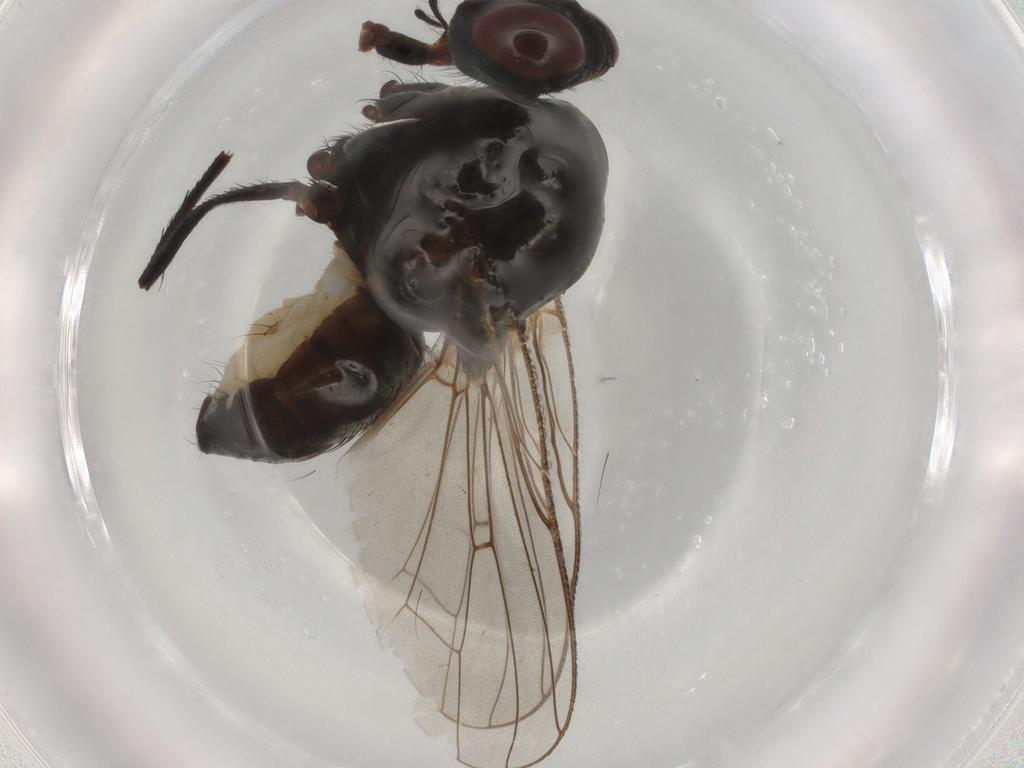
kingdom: Animalia
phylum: Arthropoda
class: Insecta
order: Diptera
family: Anthomyiidae
